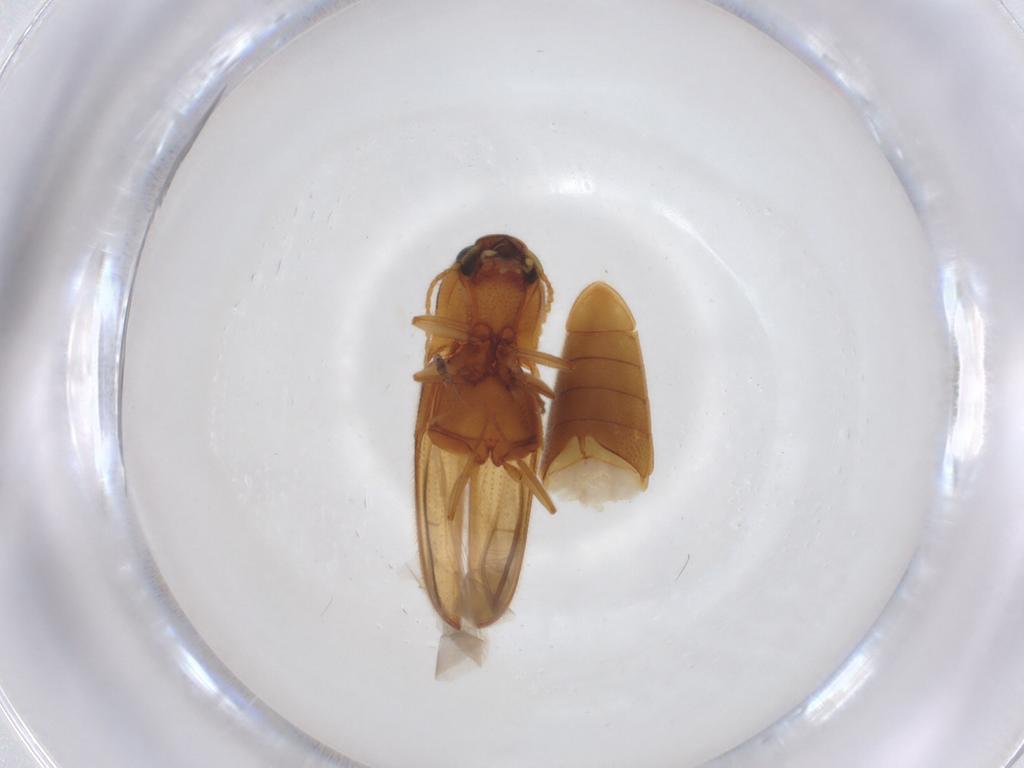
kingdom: Animalia
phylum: Arthropoda
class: Insecta
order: Coleoptera
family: Elateridae
